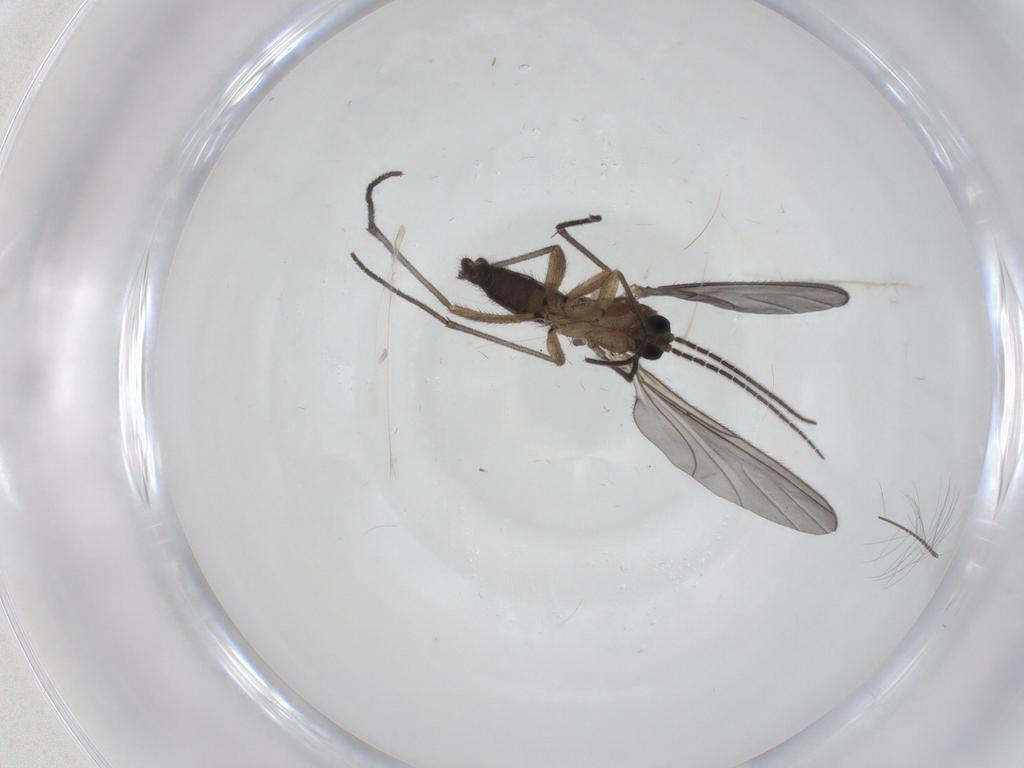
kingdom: Animalia
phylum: Arthropoda
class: Insecta
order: Diptera
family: Sciaridae
